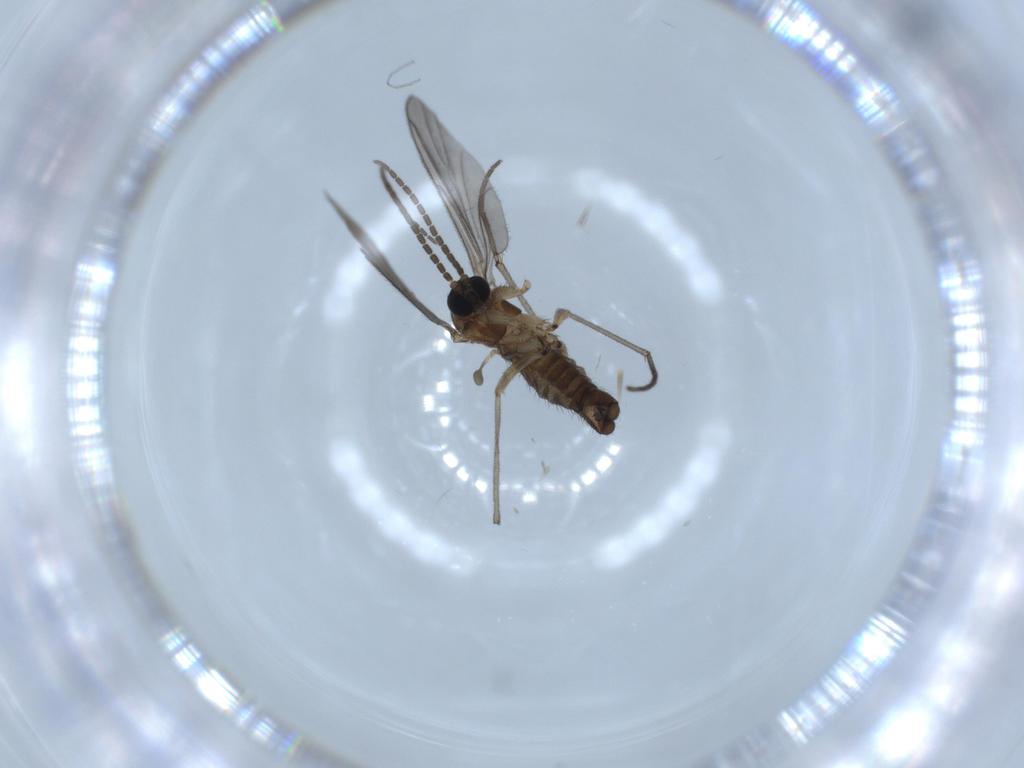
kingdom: Animalia
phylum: Arthropoda
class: Insecta
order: Diptera
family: Sciaridae
